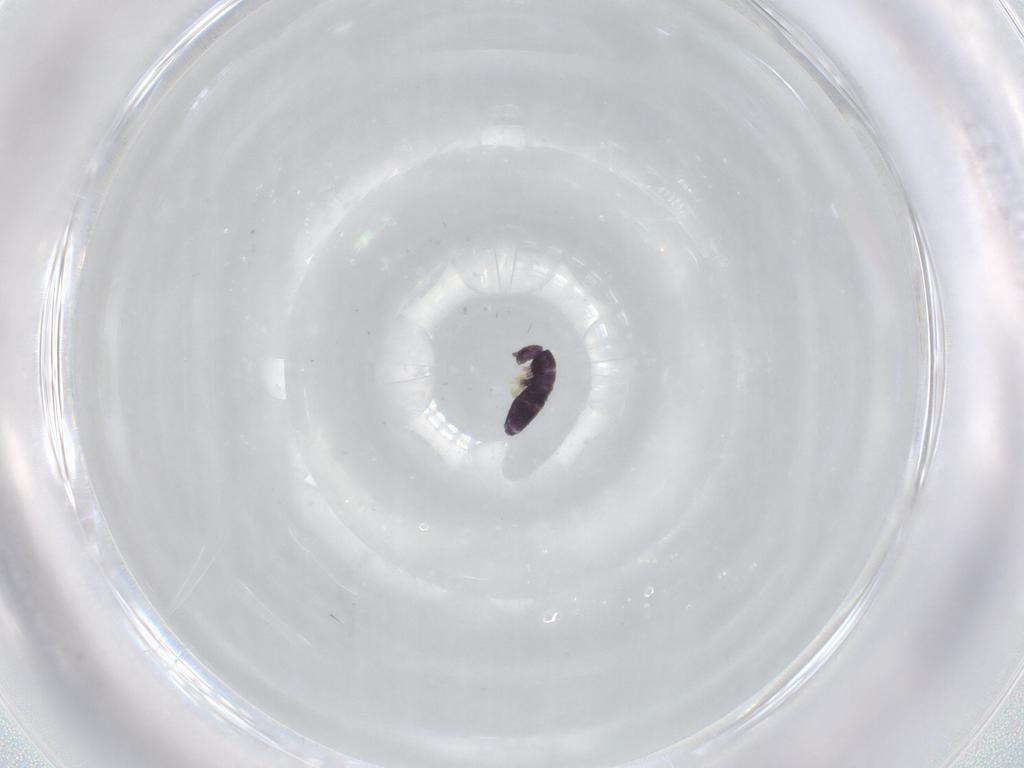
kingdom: Animalia
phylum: Arthropoda
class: Collembola
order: Entomobryomorpha
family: Entomobryidae
